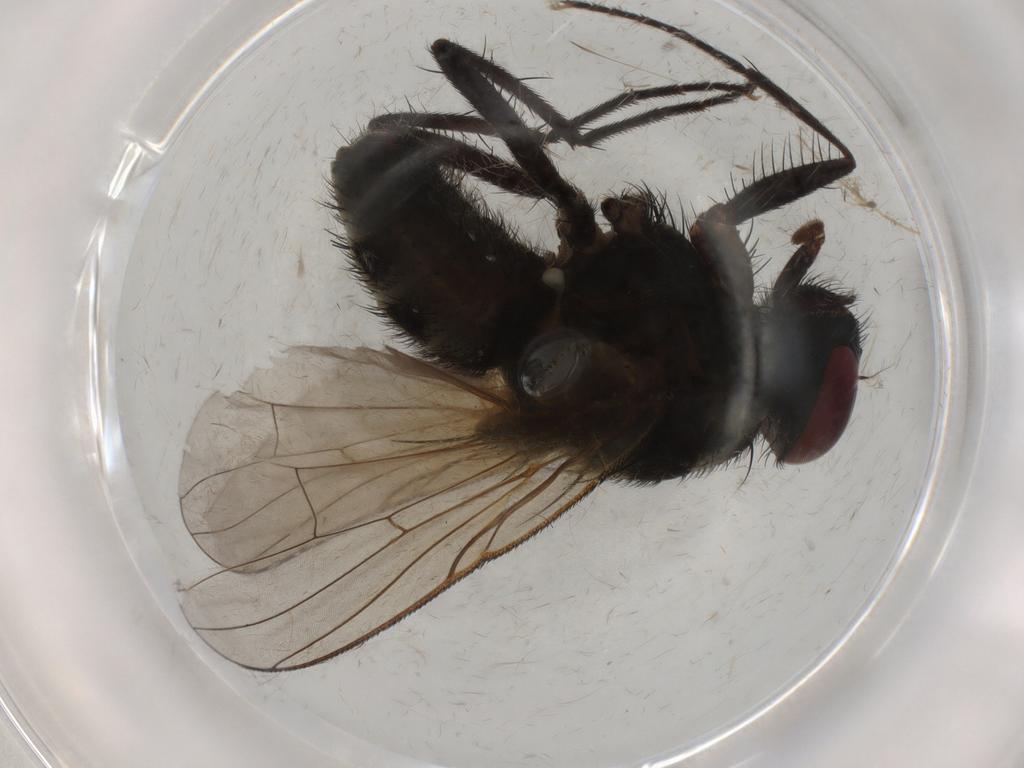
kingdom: Animalia
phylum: Arthropoda
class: Insecta
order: Diptera
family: Muscidae
